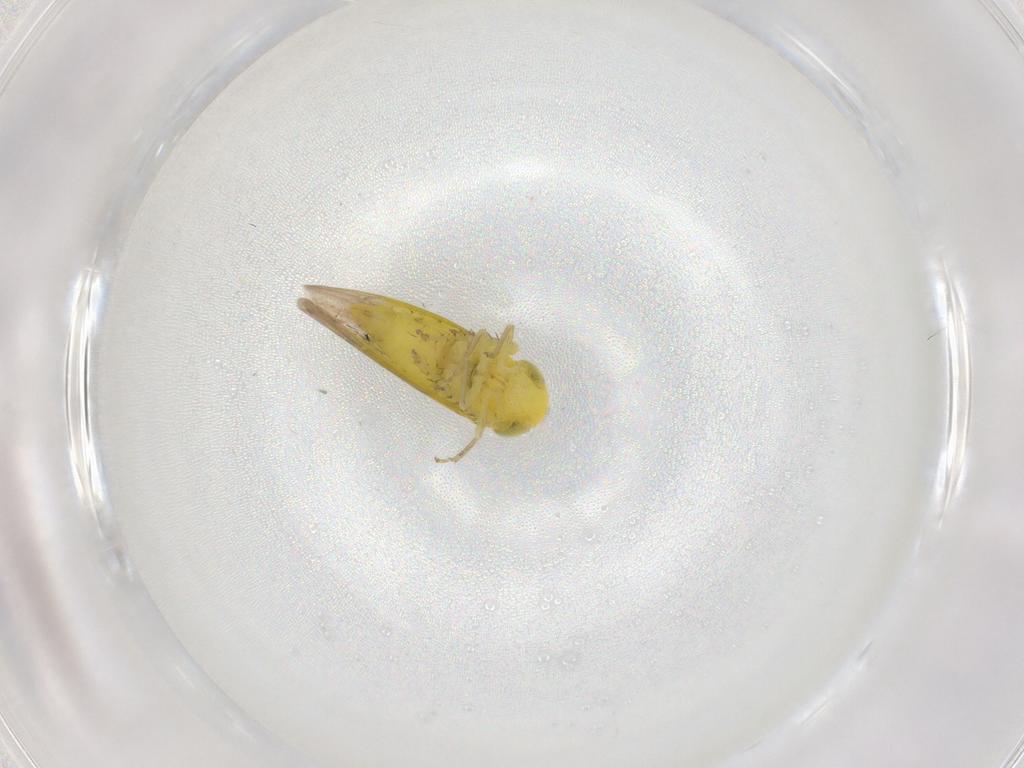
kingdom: Animalia
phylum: Arthropoda
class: Insecta
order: Hemiptera
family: Cicadellidae
